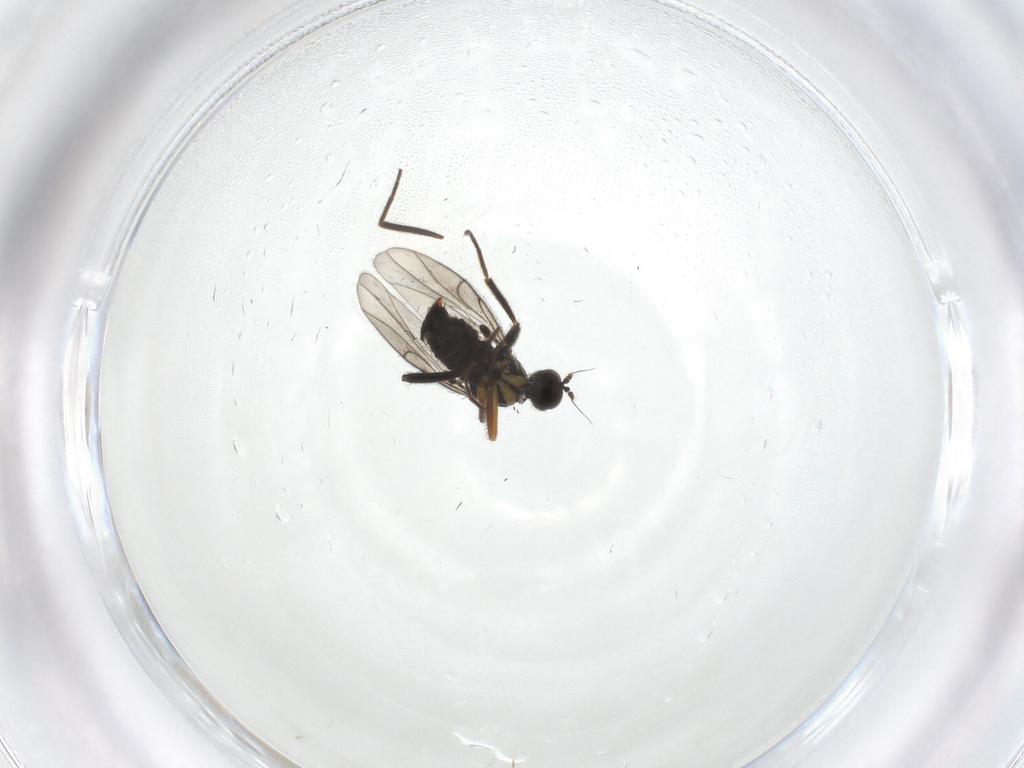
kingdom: Animalia
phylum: Arthropoda
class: Insecta
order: Diptera
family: Hybotidae
